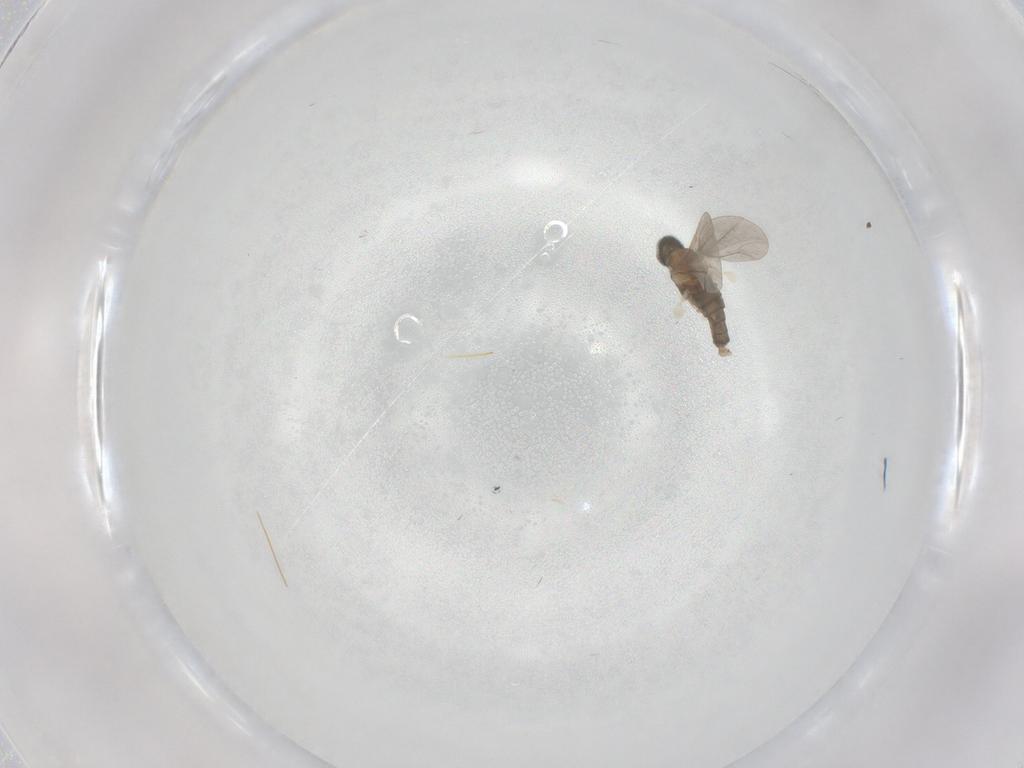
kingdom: Animalia
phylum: Arthropoda
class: Insecta
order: Diptera
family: Cecidomyiidae
